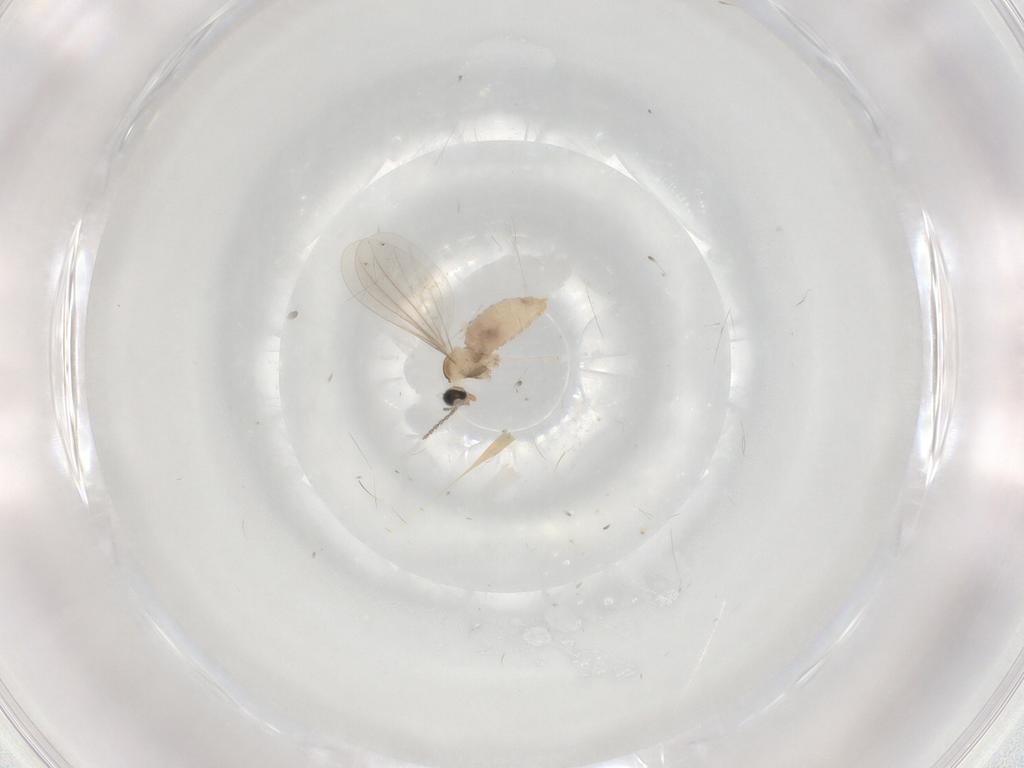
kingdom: Animalia
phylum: Arthropoda
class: Insecta
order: Diptera
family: Cecidomyiidae
